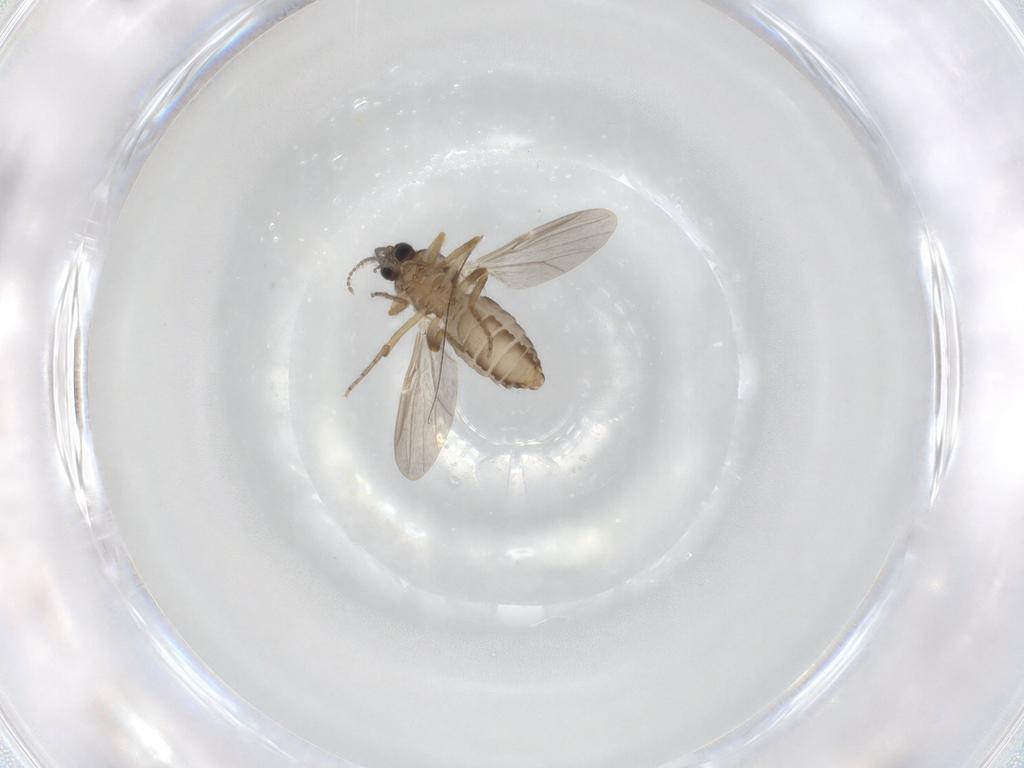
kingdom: Animalia
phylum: Arthropoda
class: Insecta
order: Diptera
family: Ceratopogonidae
